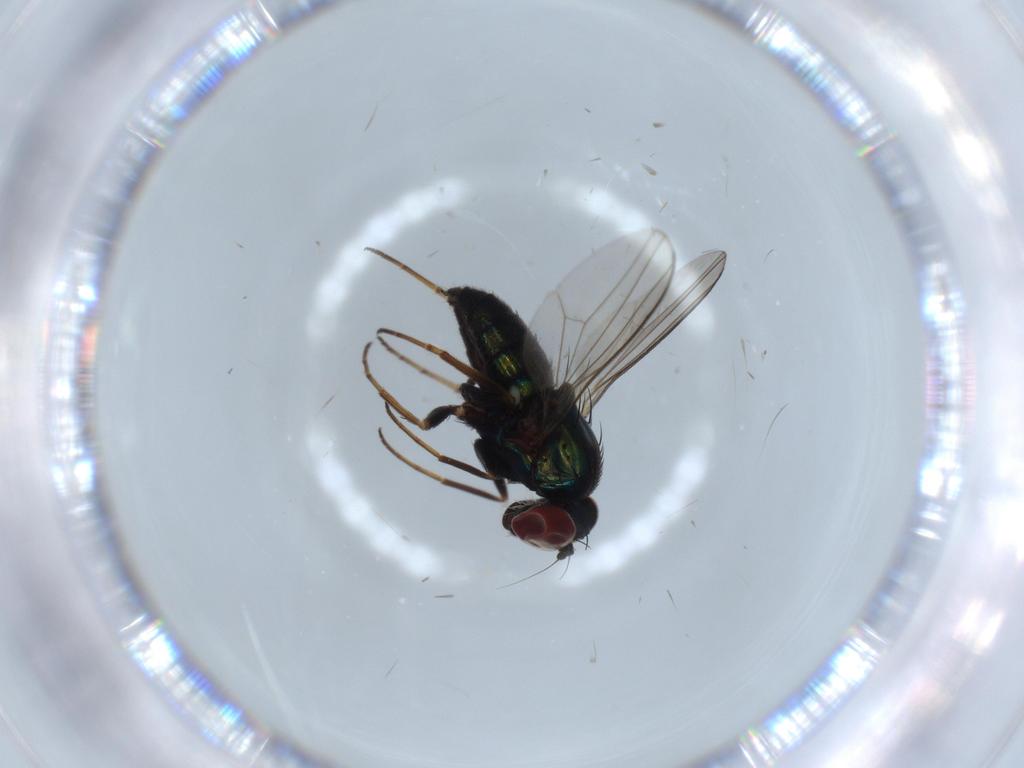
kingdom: Animalia
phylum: Arthropoda
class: Insecta
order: Diptera
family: Dolichopodidae
